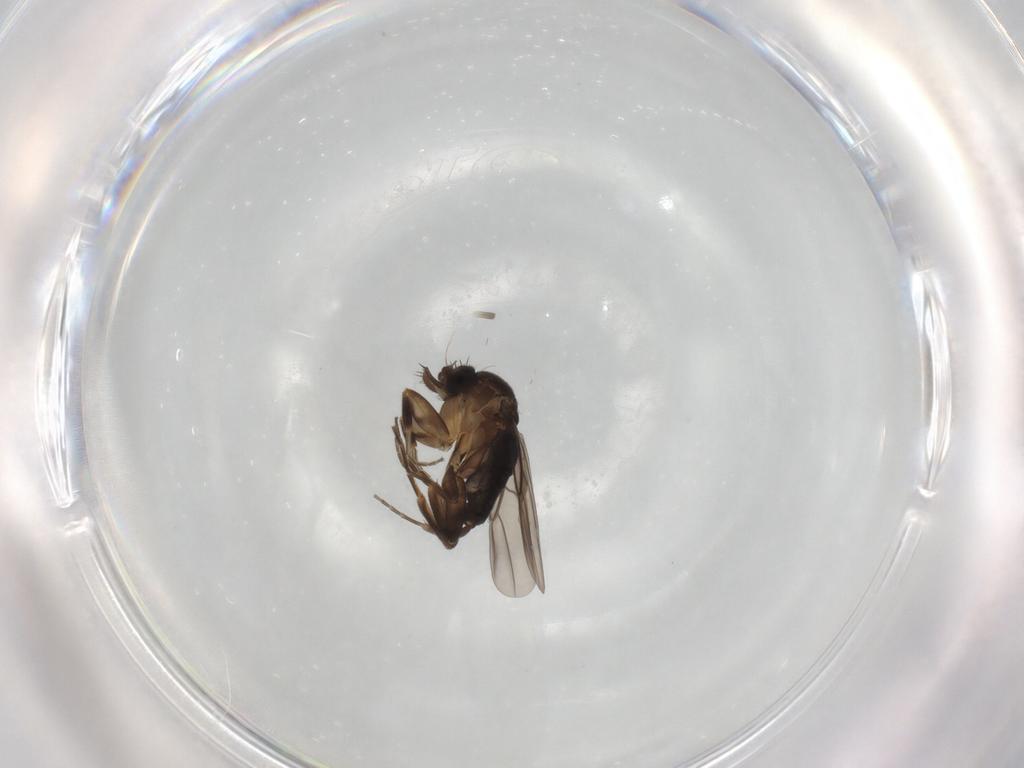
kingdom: Animalia
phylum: Arthropoda
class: Insecta
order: Diptera
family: Phoridae
